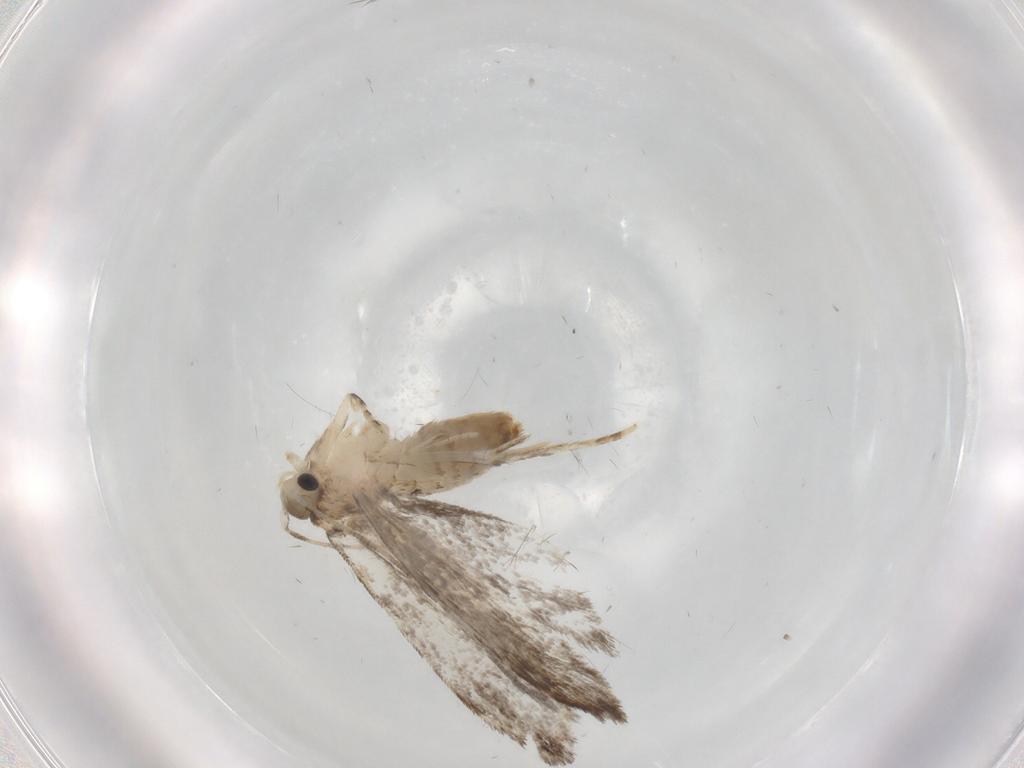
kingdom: Animalia
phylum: Arthropoda
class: Insecta
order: Lepidoptera
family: Tineidae
